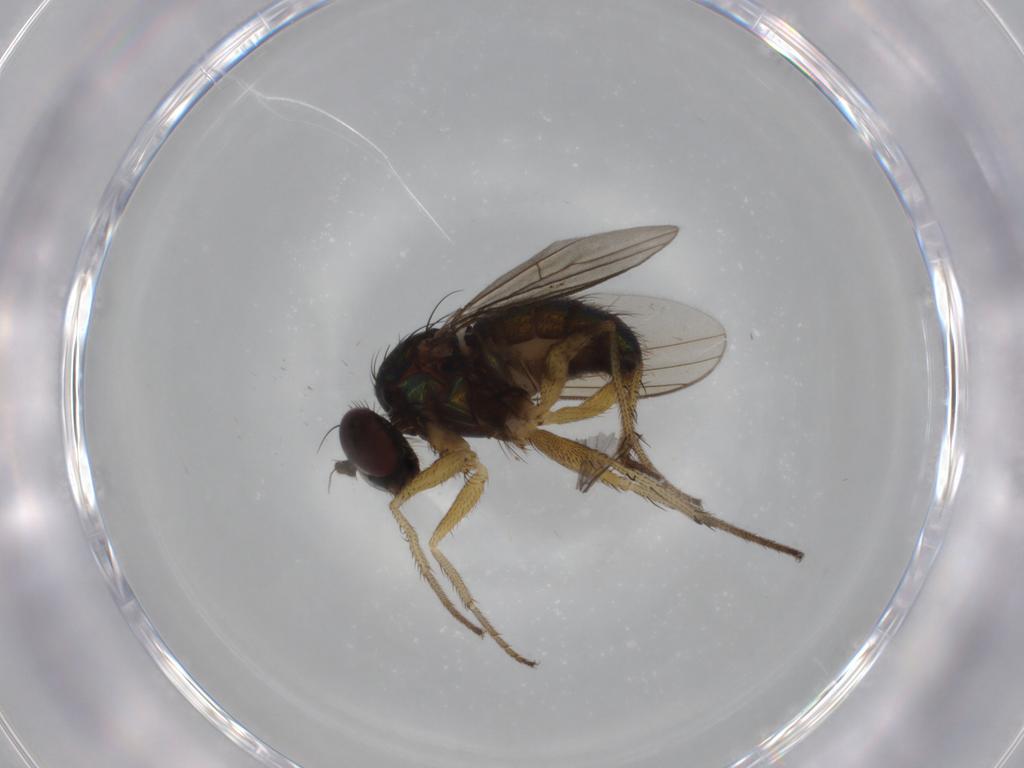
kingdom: Animalia
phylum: Arthropoda
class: Insecta
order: Diptera
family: Dolichopodidae
